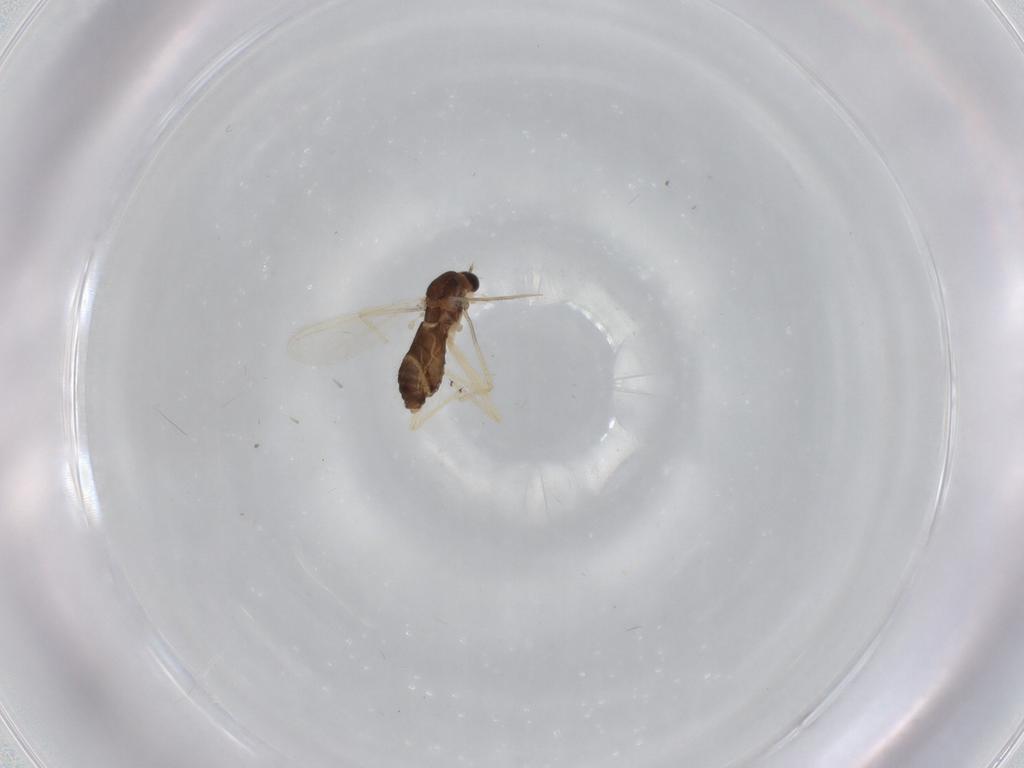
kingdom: Animalia
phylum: Arthropoda
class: Insecta
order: Diptera
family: Chironomidae
